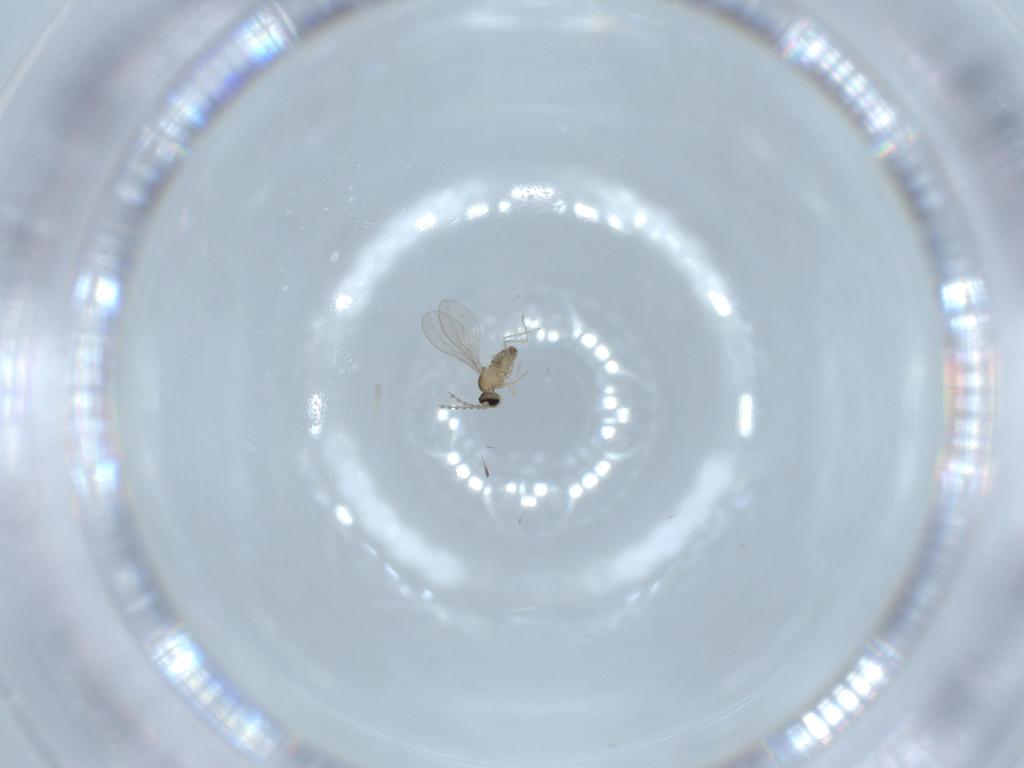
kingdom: Animalia
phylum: Arthropoda
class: Insecta
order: Diptera
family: Cecidomyiidae
